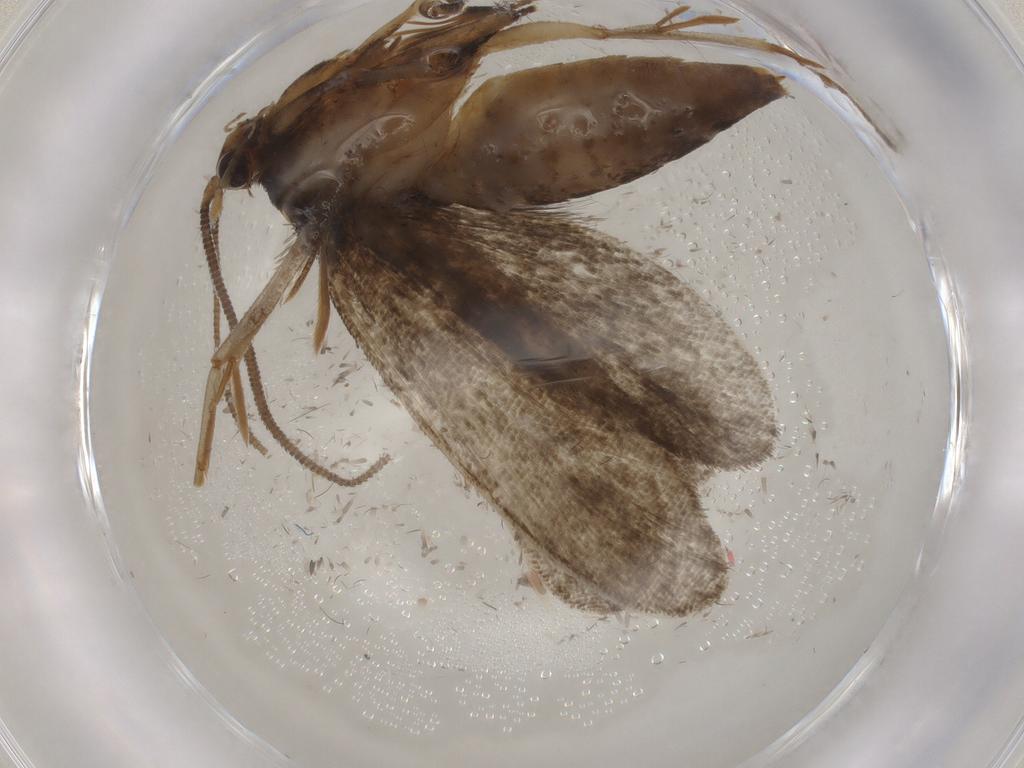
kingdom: Animalia
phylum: Arthropoda
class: Insecta
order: Lepidoptera
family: Tineidae
